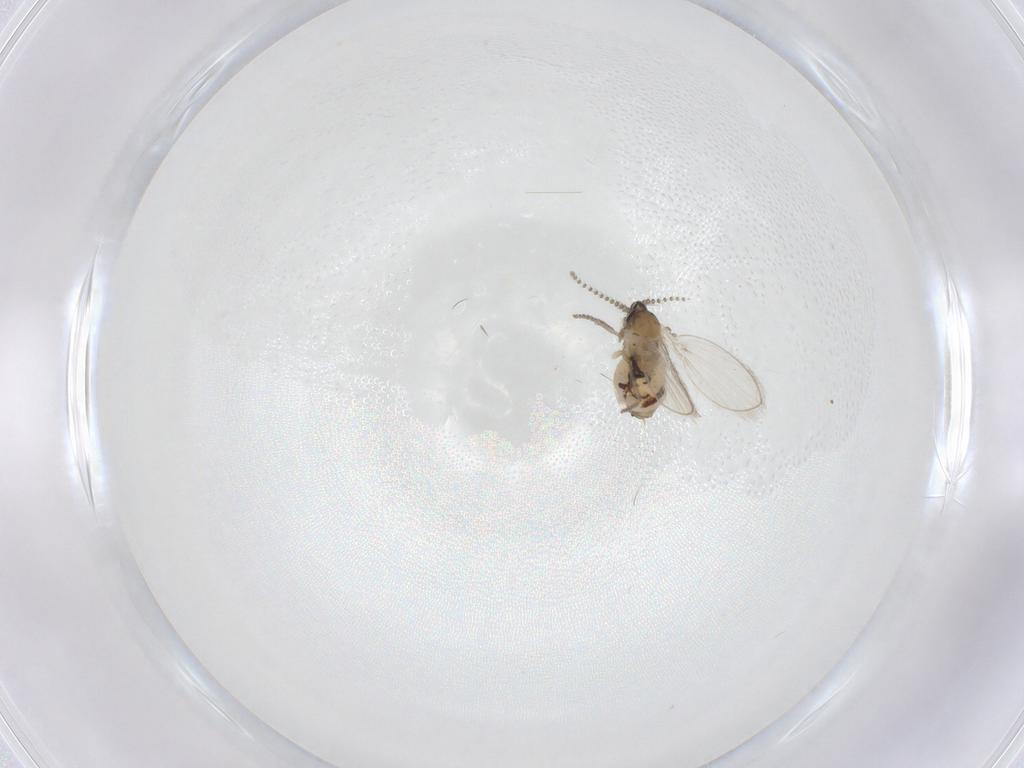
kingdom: Animalia
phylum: Arthropoda
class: Insecta
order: Diptera
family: Psychodidae
